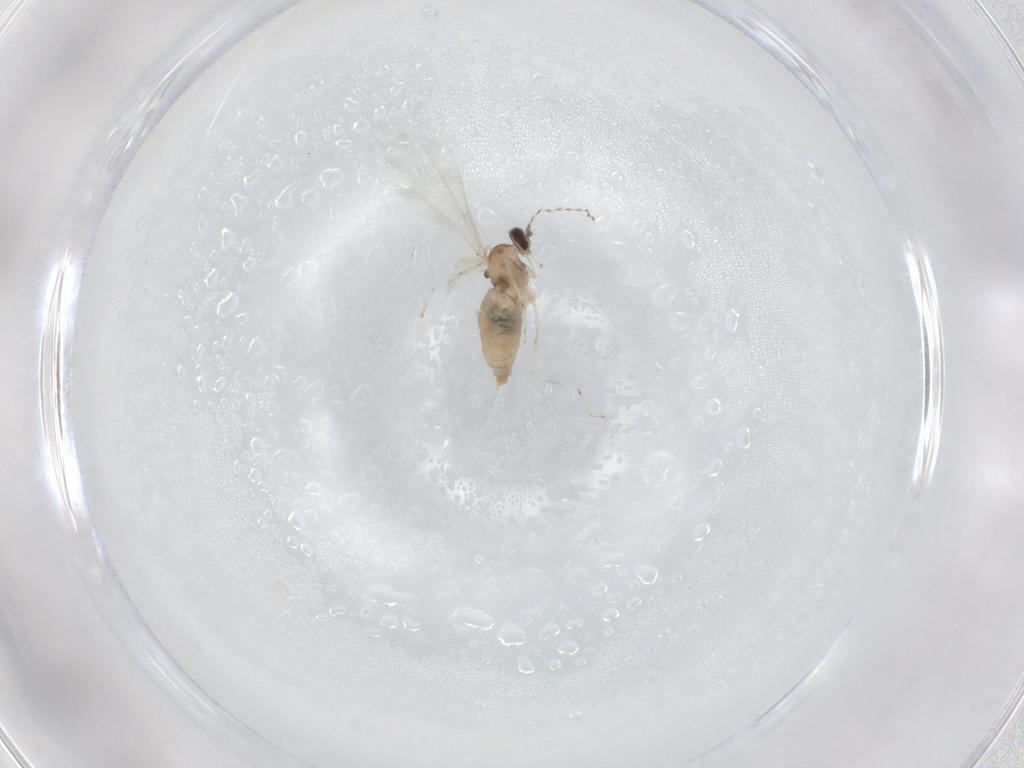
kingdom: Animalia
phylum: Arthropoda
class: Insecta
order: Diptera
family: Cecidomyiidae
